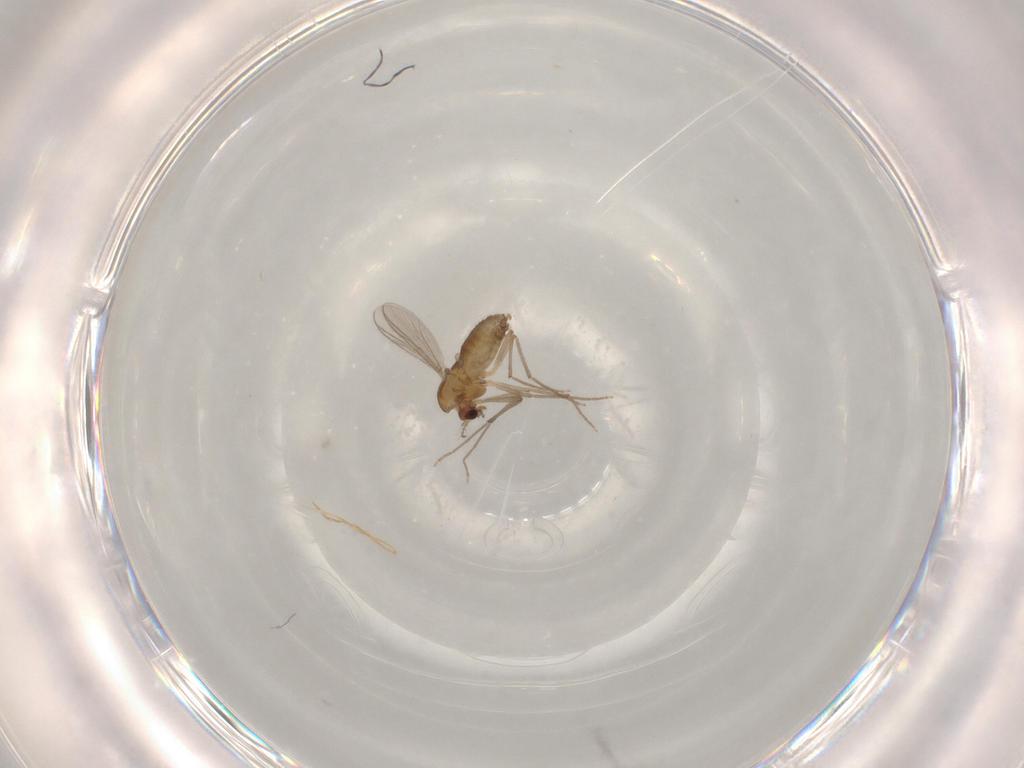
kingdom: Animalia
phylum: Arthropoda
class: Insecta
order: Diptera
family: Chironomidae
